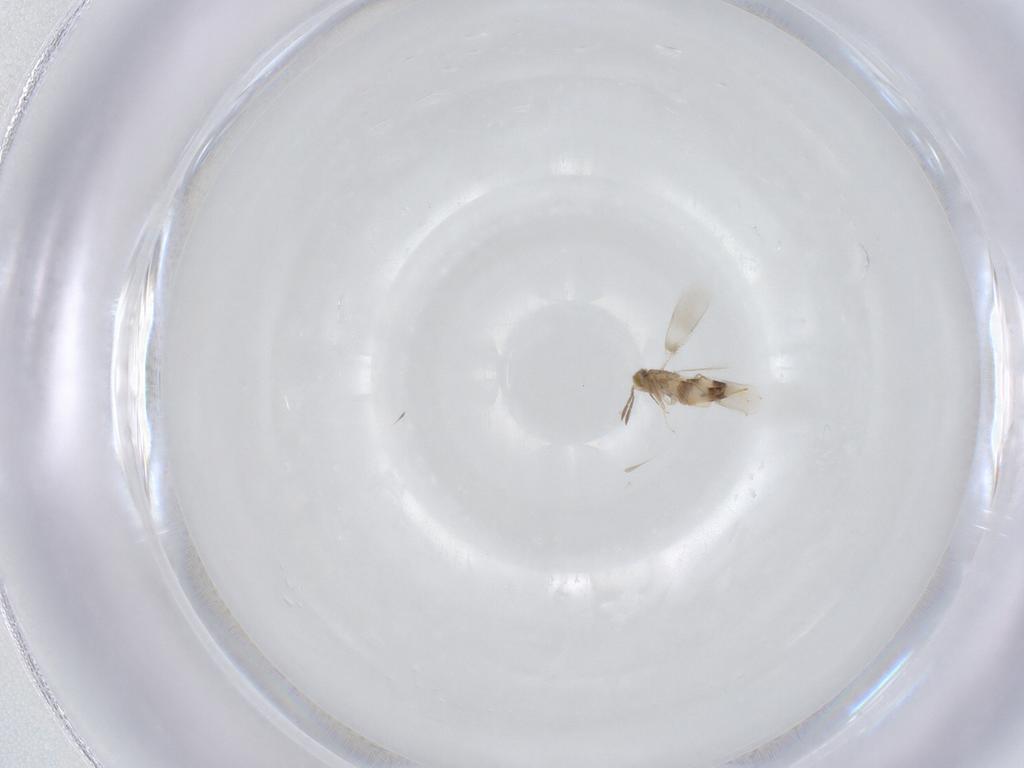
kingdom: Animalia
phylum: Arthropoda
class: Insecta
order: Hymenoptera
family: Aphelinidae
